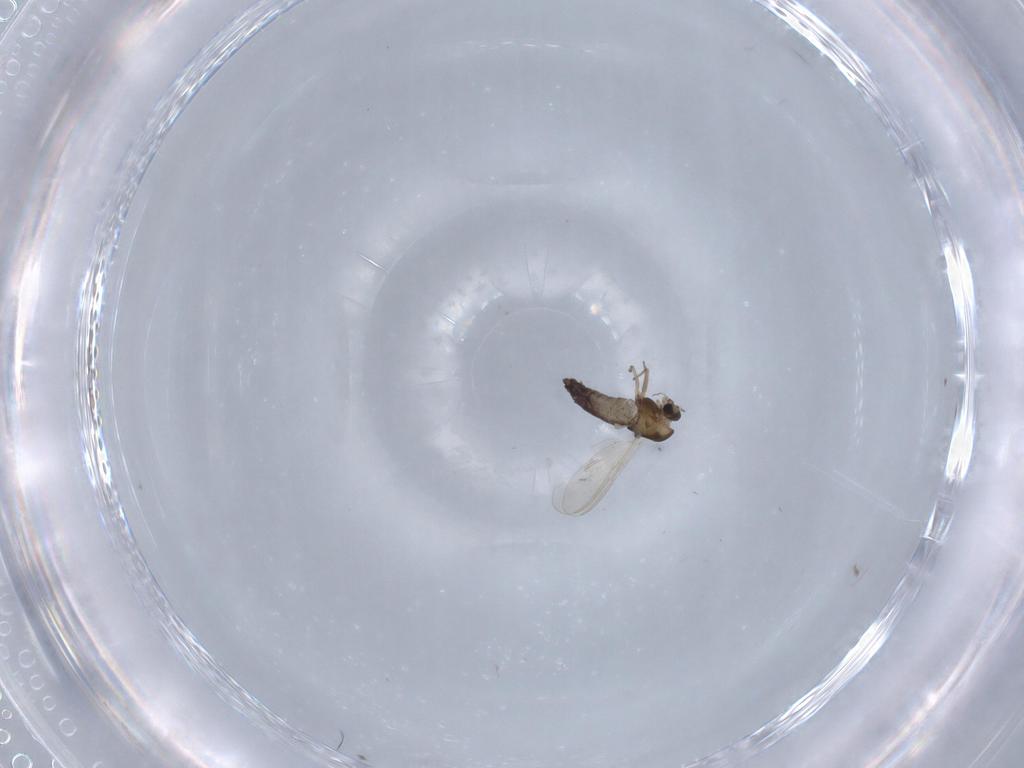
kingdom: Animalia
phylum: Arthropoda
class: Insecta
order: Diptera
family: Chironomidae
